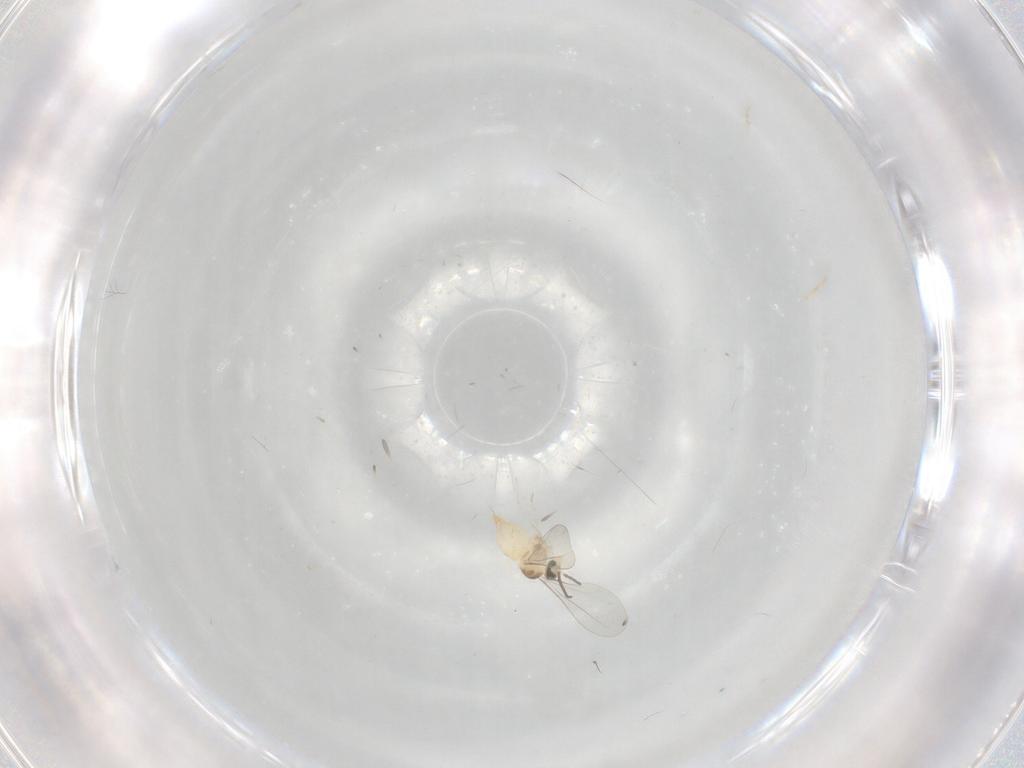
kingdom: Animalia
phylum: Arthropoda
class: Insecta
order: Diptera
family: Cecidomyiidae
